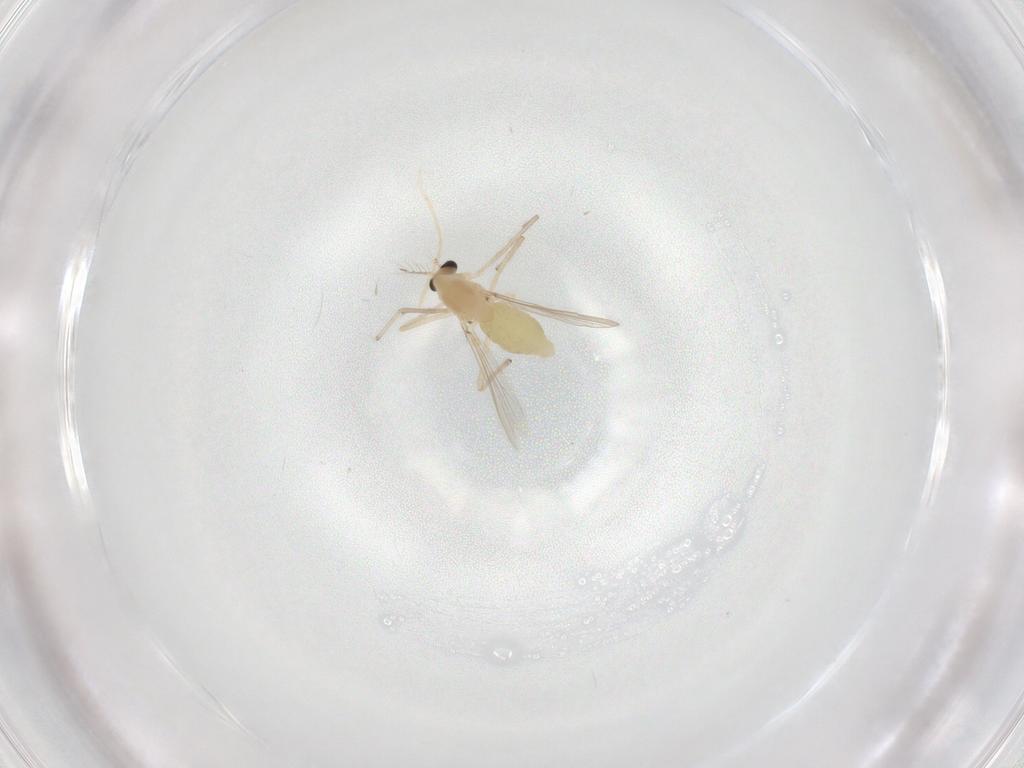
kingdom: Animalia
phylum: Arthropoda
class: Insecta
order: Diptera
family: Chironomidae
